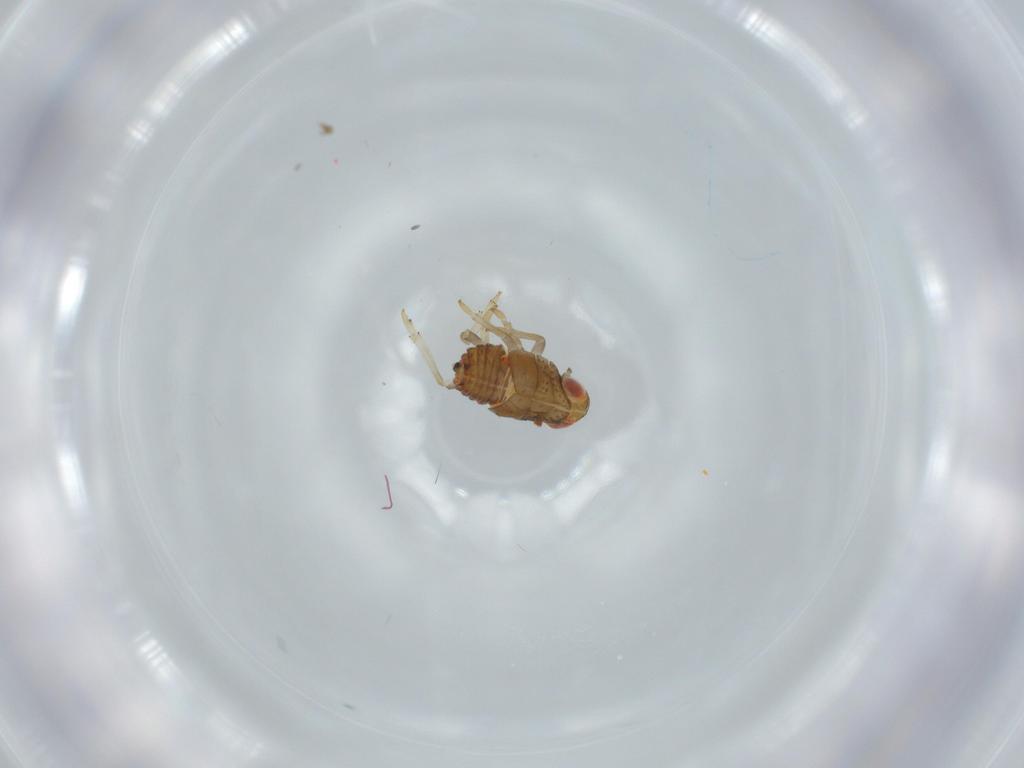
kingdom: Animalia
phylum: Arthropoda
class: Insecta
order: Hemiptera
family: Issidae
